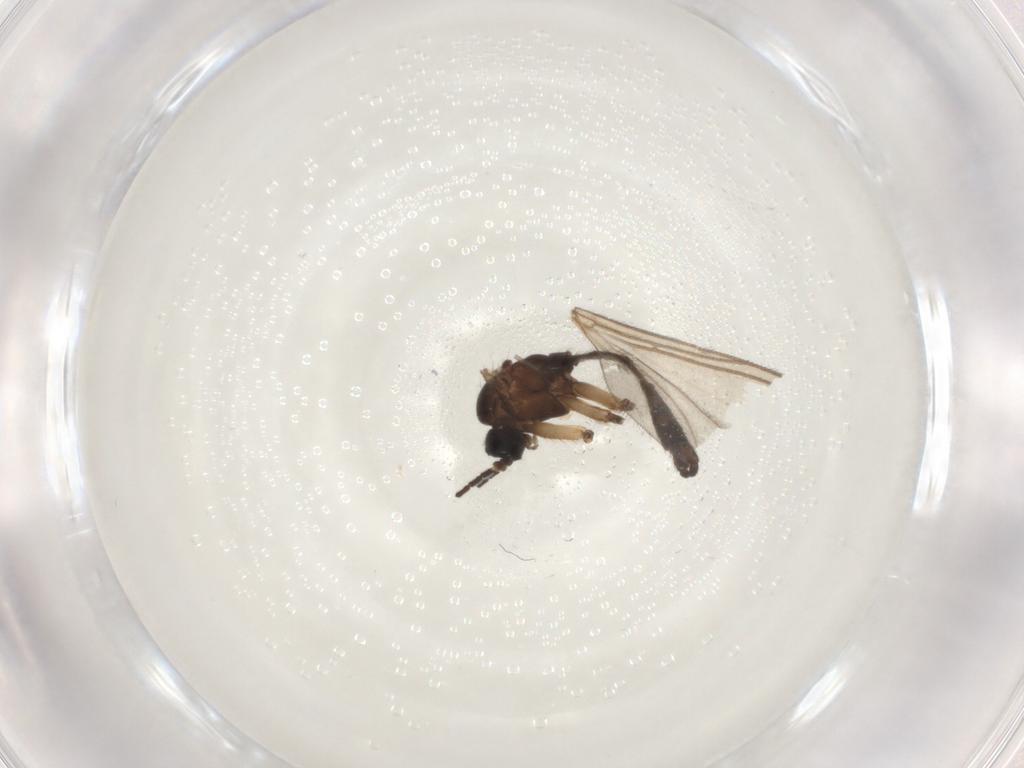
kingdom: Animalia
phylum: Arthropoda
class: Insecta
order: Diptera
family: Sciaridae
